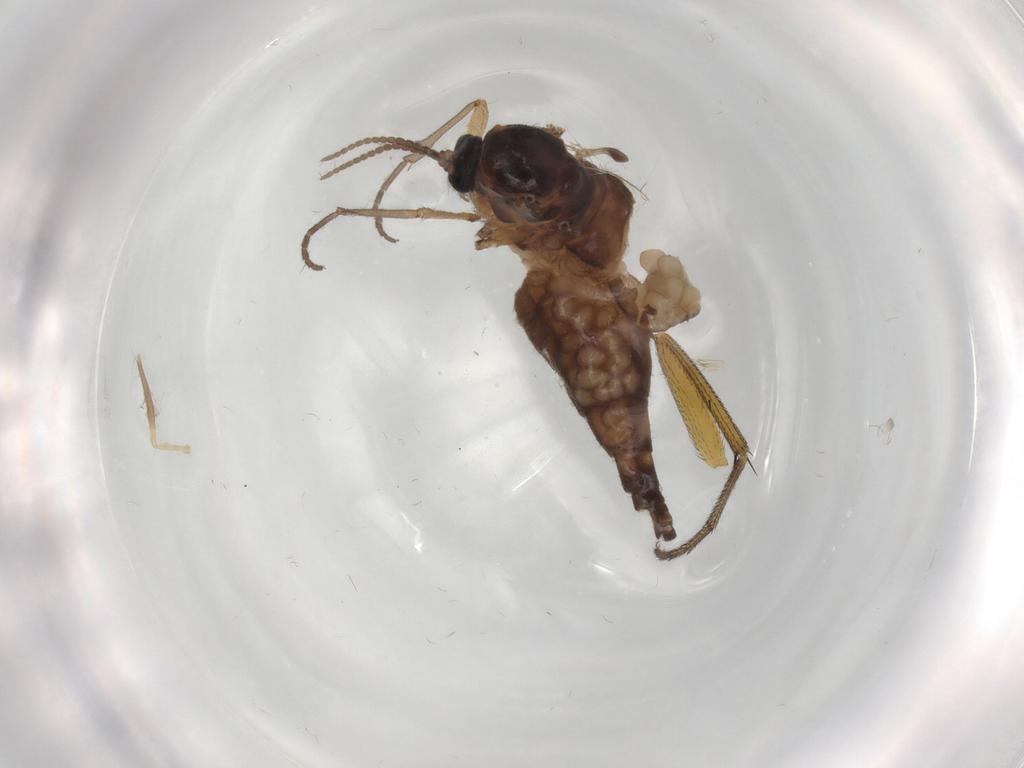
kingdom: Animalia
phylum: Arthropoda
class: Insecta
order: Diptera
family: Sciaridae
